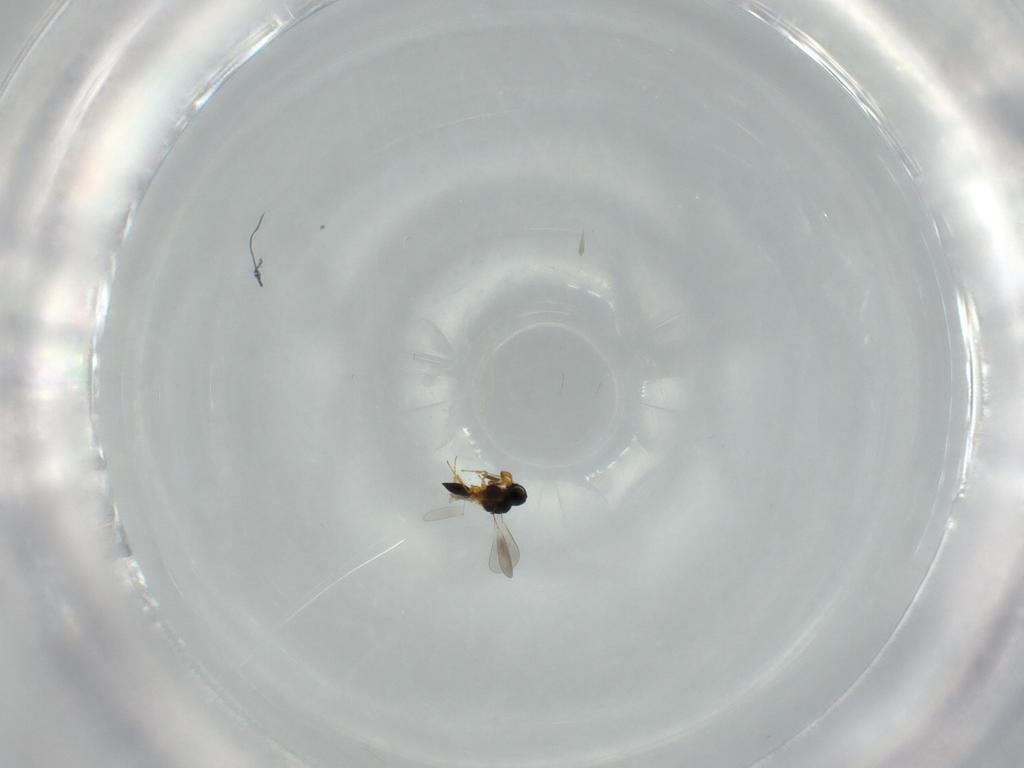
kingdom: Animalia
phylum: Arthropoda
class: Insecta
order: Hymenoptera
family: Platygastridae
